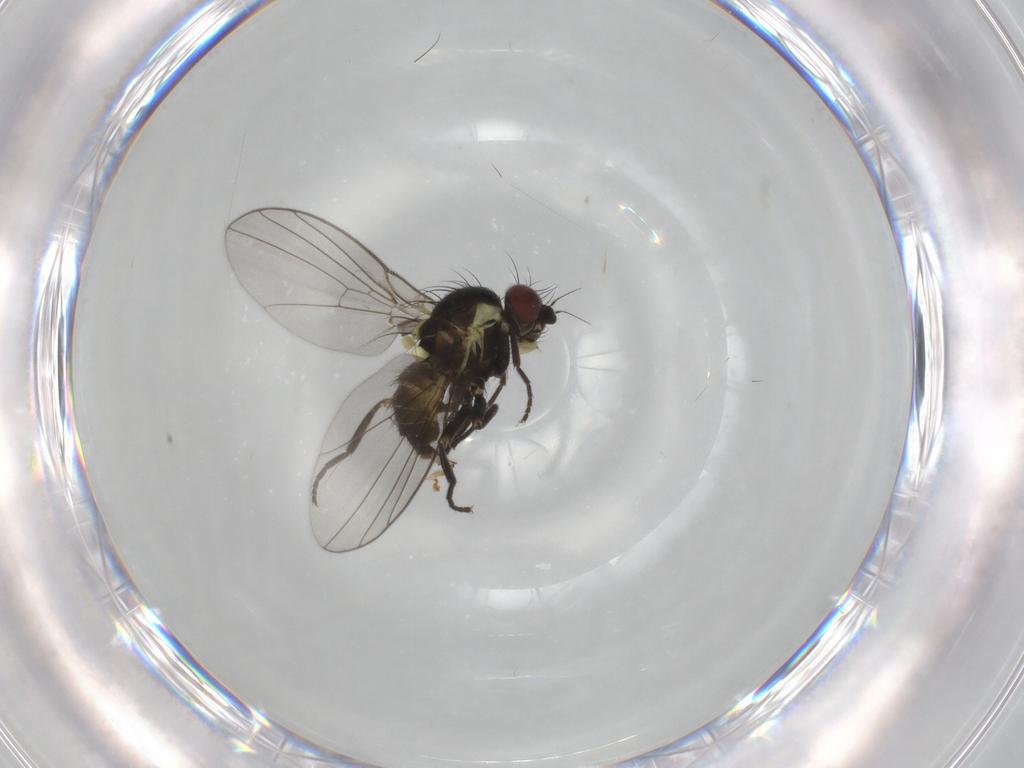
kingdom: Animalia
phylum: Arthropoda
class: Insecta
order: Diptera
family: Agromyzidae
